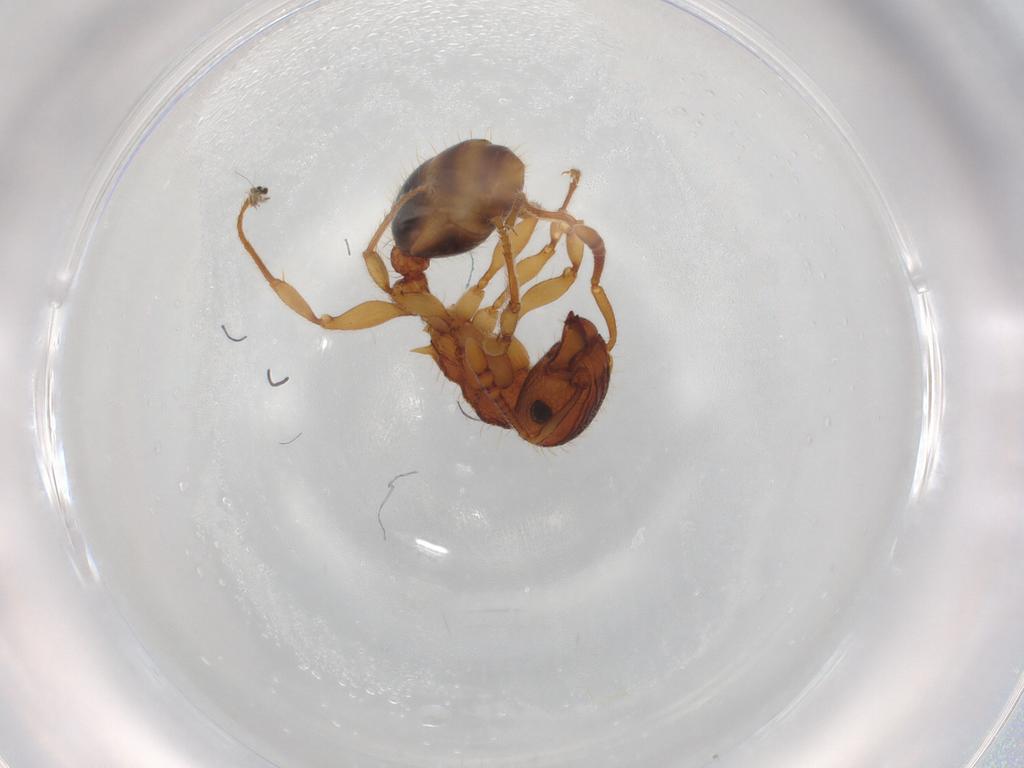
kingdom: Animalia
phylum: Arthropoda
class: Insecta
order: Hymenoptera
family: Formicidae
